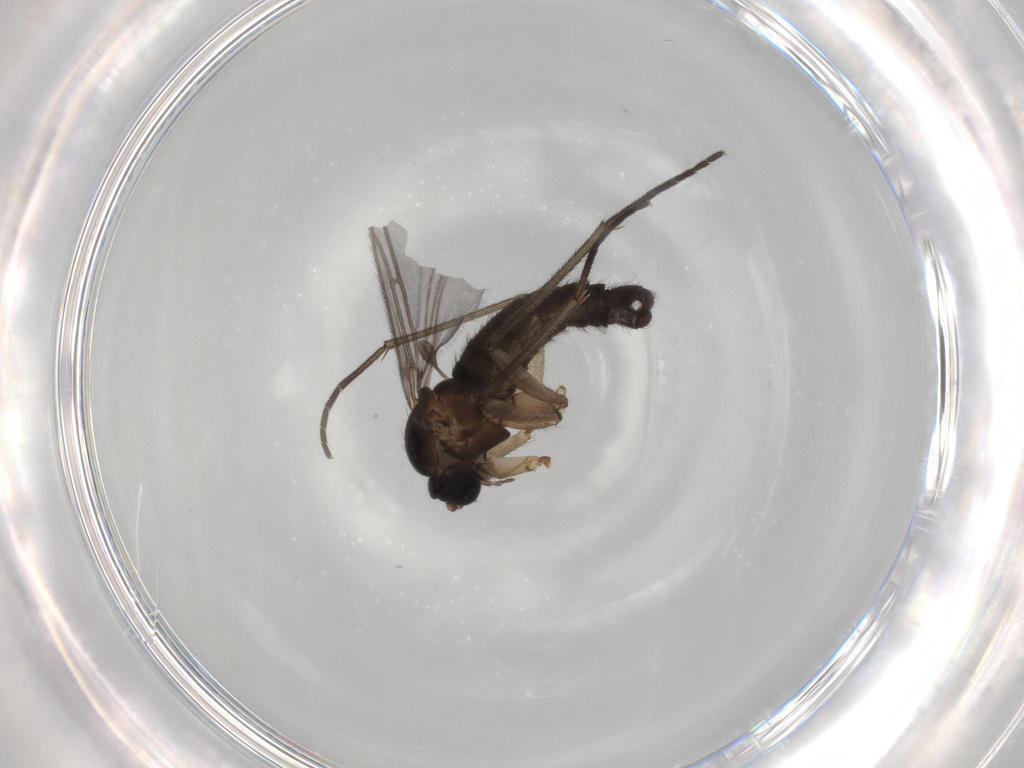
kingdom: Animalia
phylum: Arthropoda
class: Insecta
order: Diptera
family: Sciaridae
